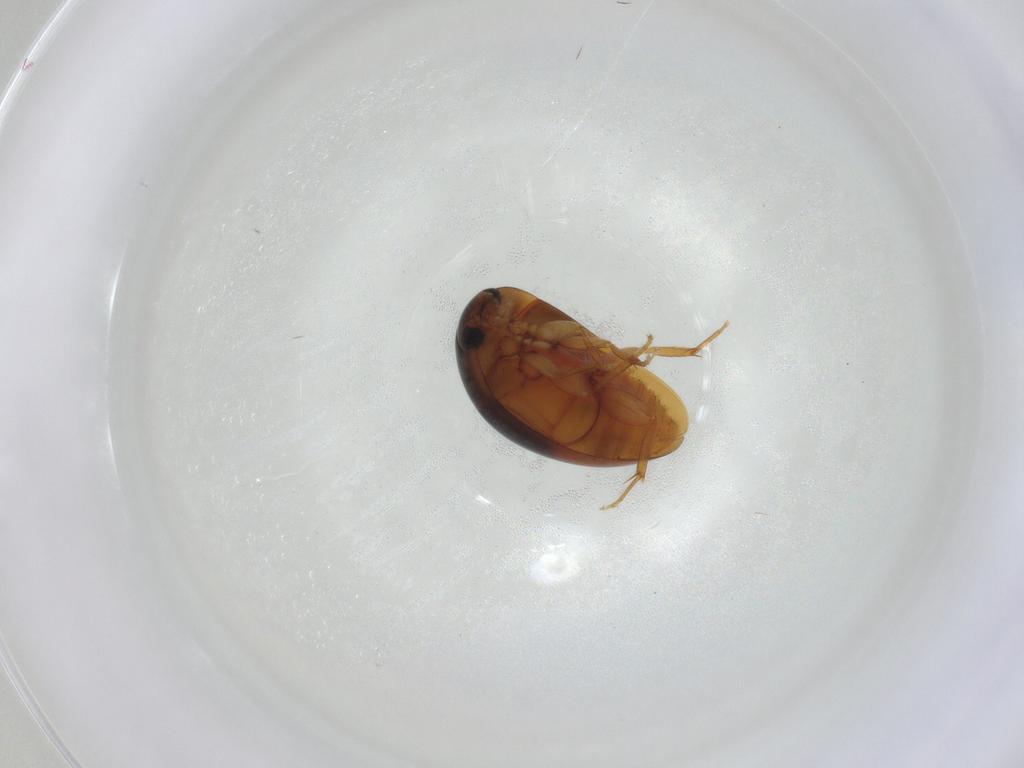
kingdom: Animalia
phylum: Arthropoda
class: Insecta
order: Coleoptera
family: Phalacridae
